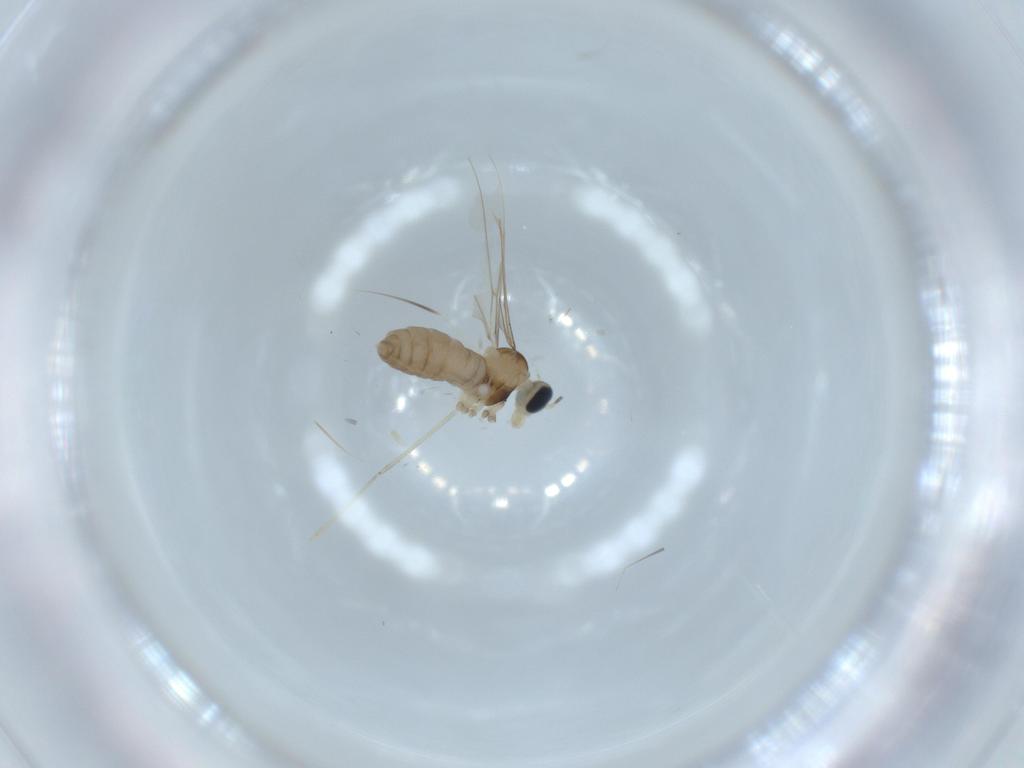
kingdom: Animalia
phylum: Arthropoda
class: Insecta
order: Diptera
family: Cecidomyiidae
